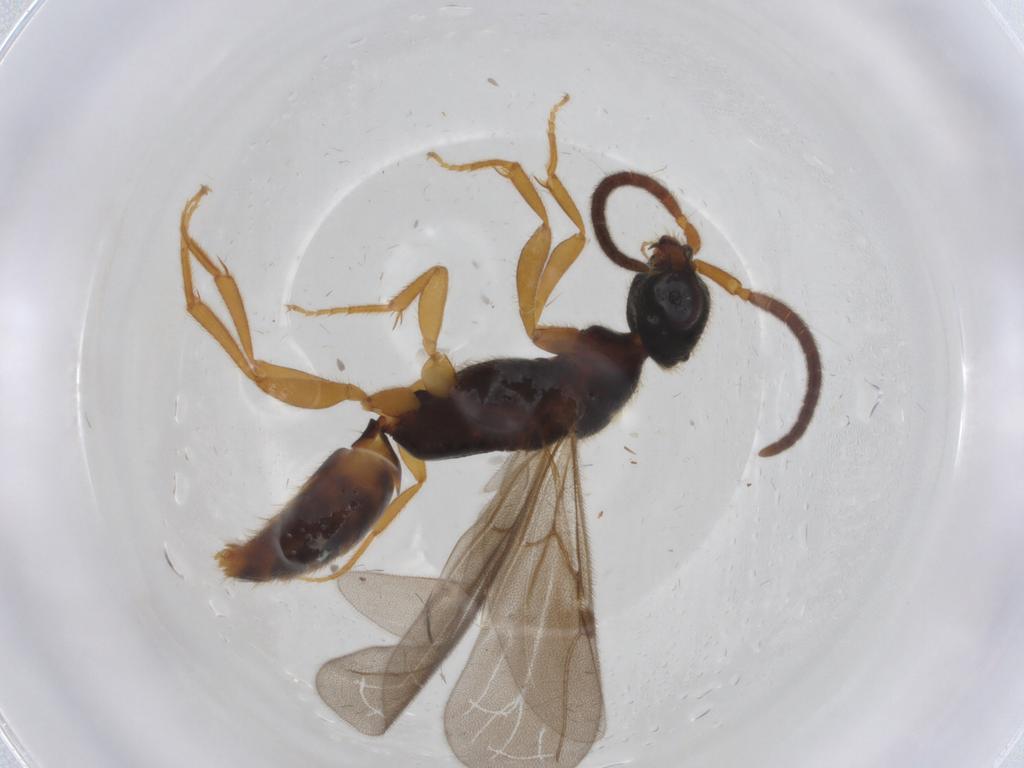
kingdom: Animalia
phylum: Arthropoda
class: Insecta
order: Hymenoptera
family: Bethylidae
